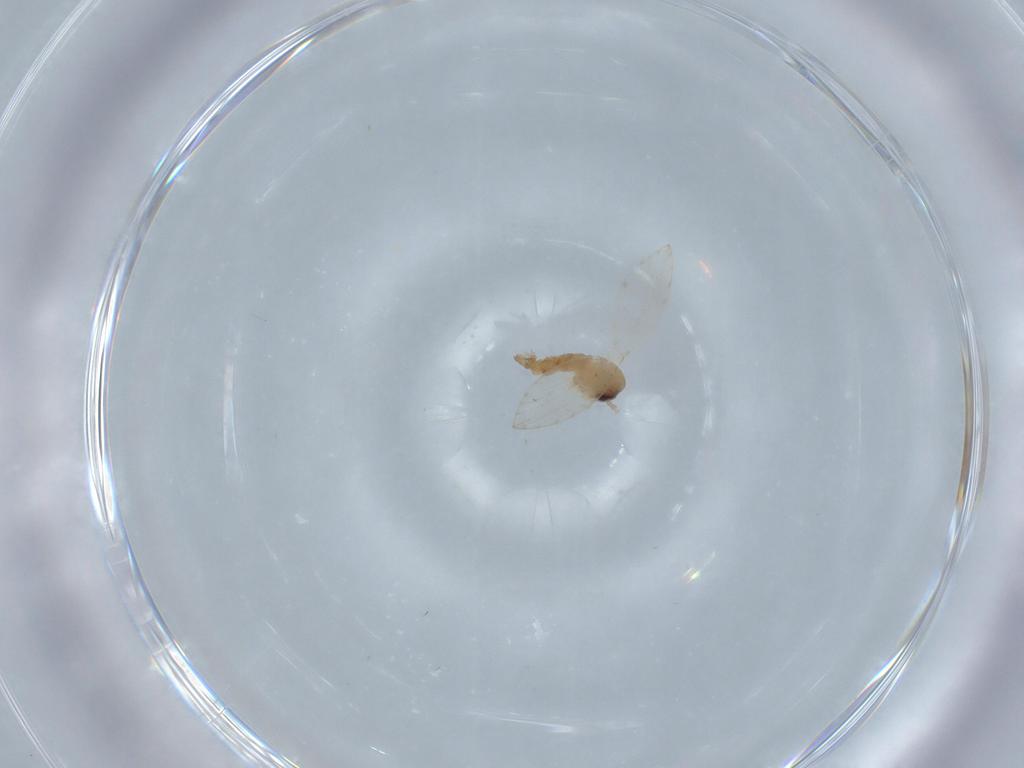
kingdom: Animalia
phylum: Arthropoda
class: Insecta
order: Diptera
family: Psychodidae
